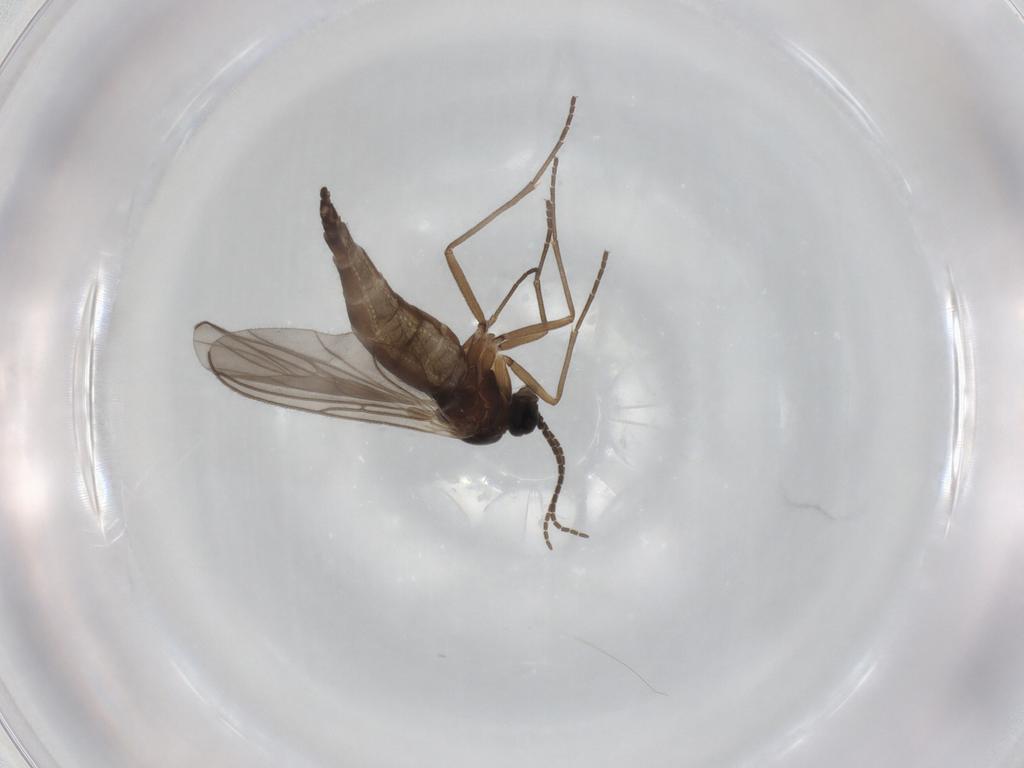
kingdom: Animalia
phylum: Arthropoda
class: Insecta
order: Diptera
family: Sciaridae
